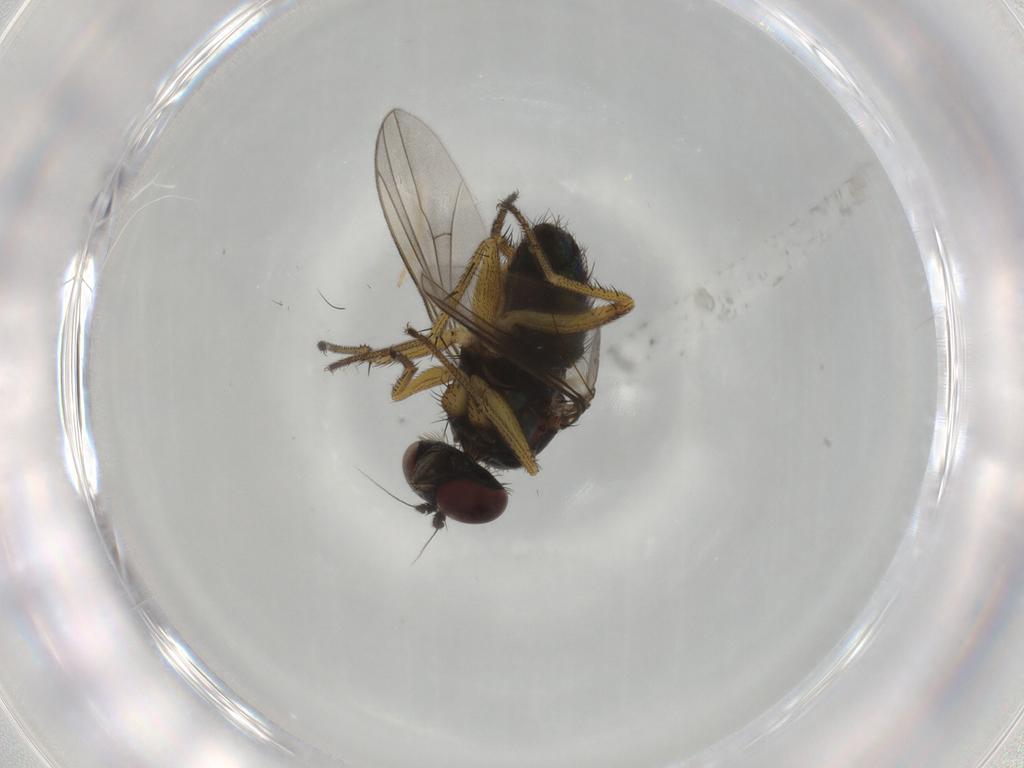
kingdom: Animalia
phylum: Arthropoda
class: Insecta
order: Diptera
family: Dolichopodidae
